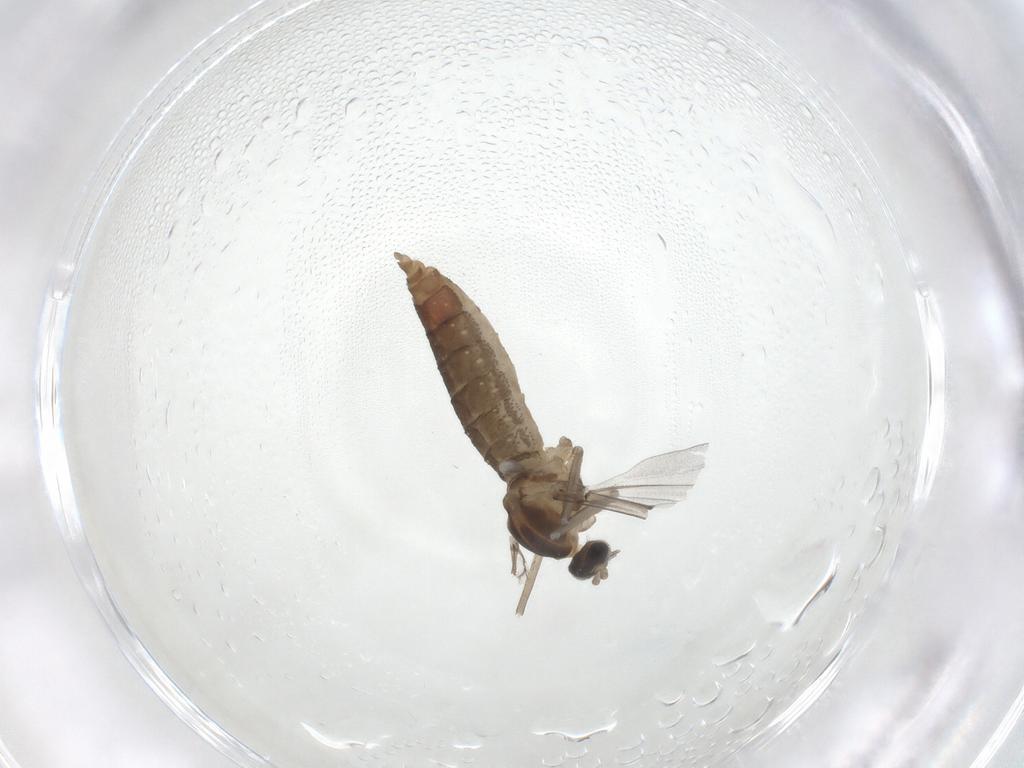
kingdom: Animalia
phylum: Arthropoda
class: Insecta
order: Diptera
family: Cecidomyiidae
